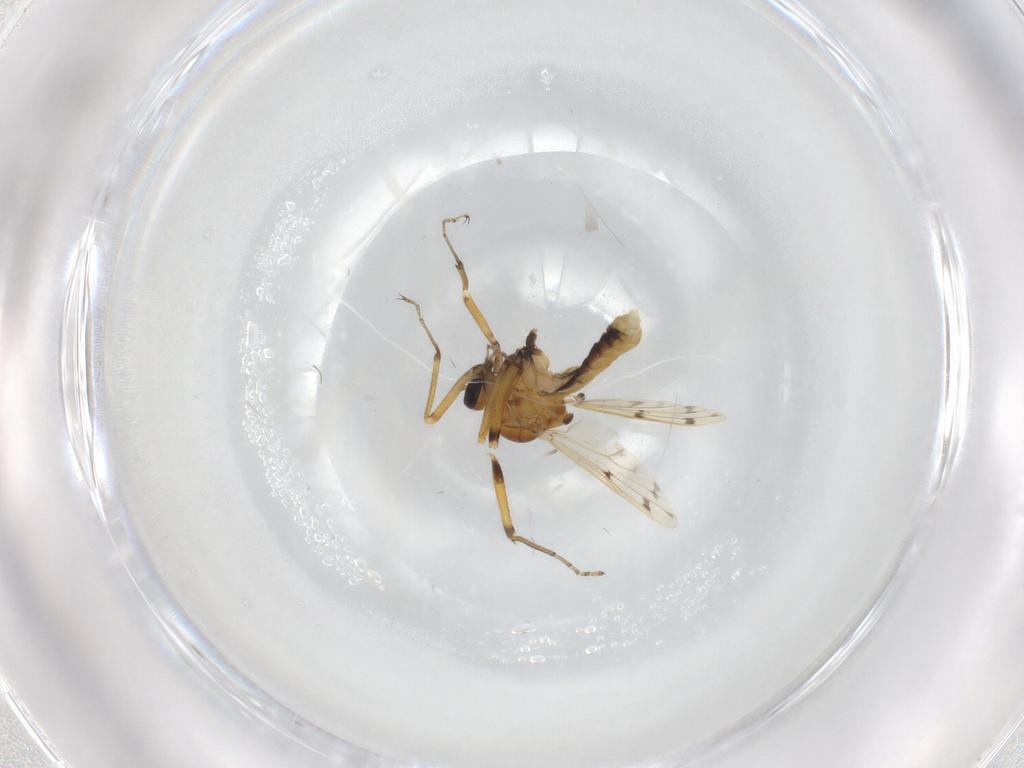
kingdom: Animalia
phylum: Arthropoda
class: Insecta
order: Diptera
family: Ceratopogonidae
